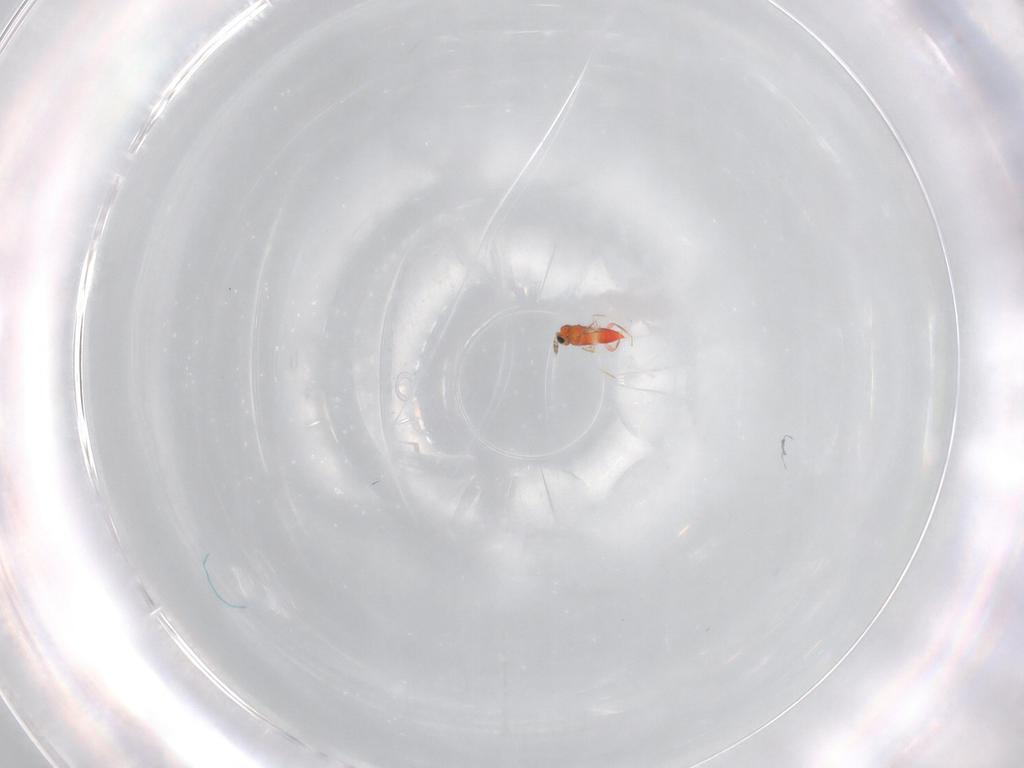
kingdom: Animalia
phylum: Arthropoda
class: Insecta
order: Hymenoptera
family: Trichogrammatidae
